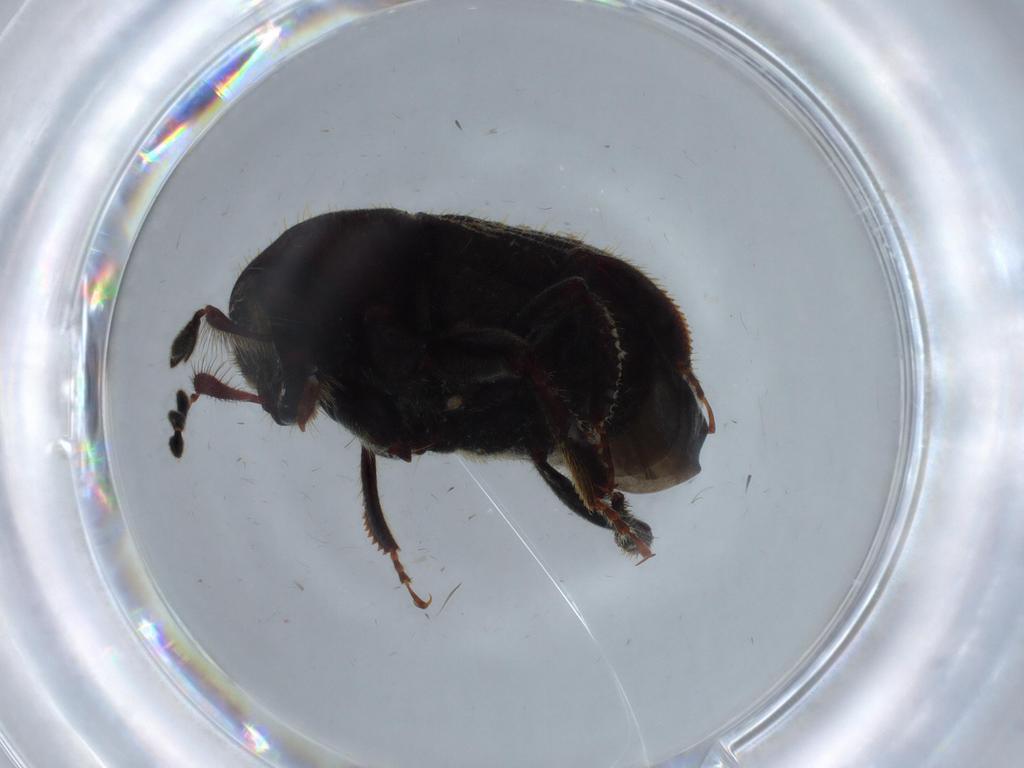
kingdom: Animalia
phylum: Arthropoda
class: Insecta
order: Coleoptera
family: Curculionidae
